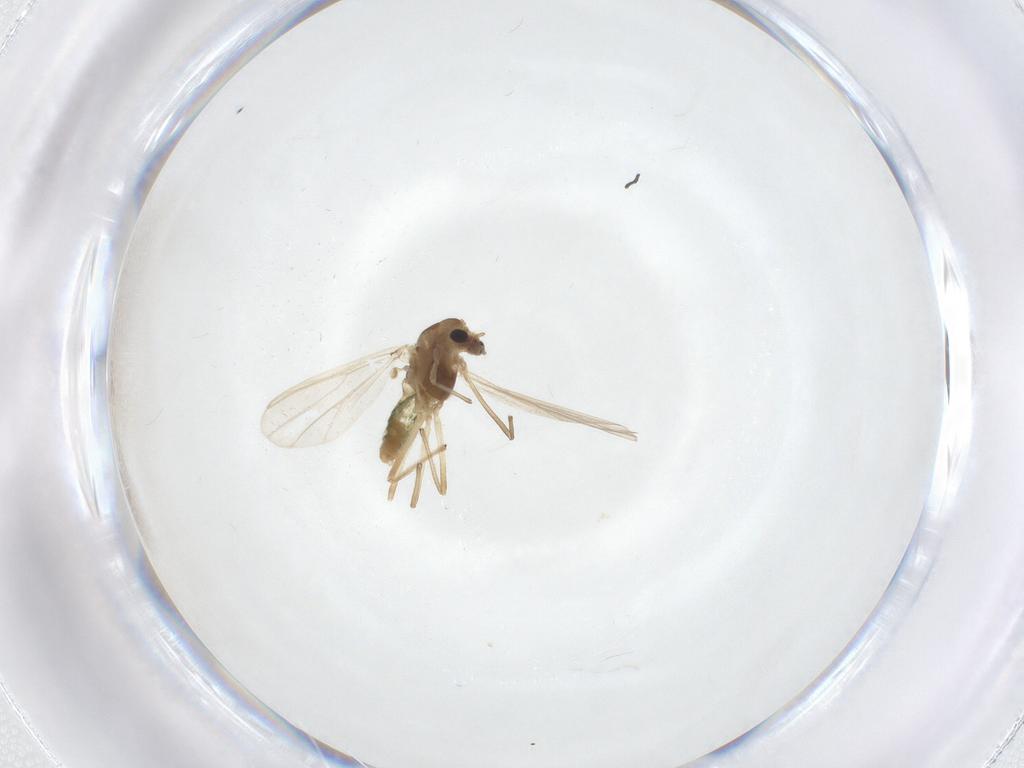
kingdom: Animalia
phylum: Arthropoda
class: Insecta
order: Diptera
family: Chironomidae
